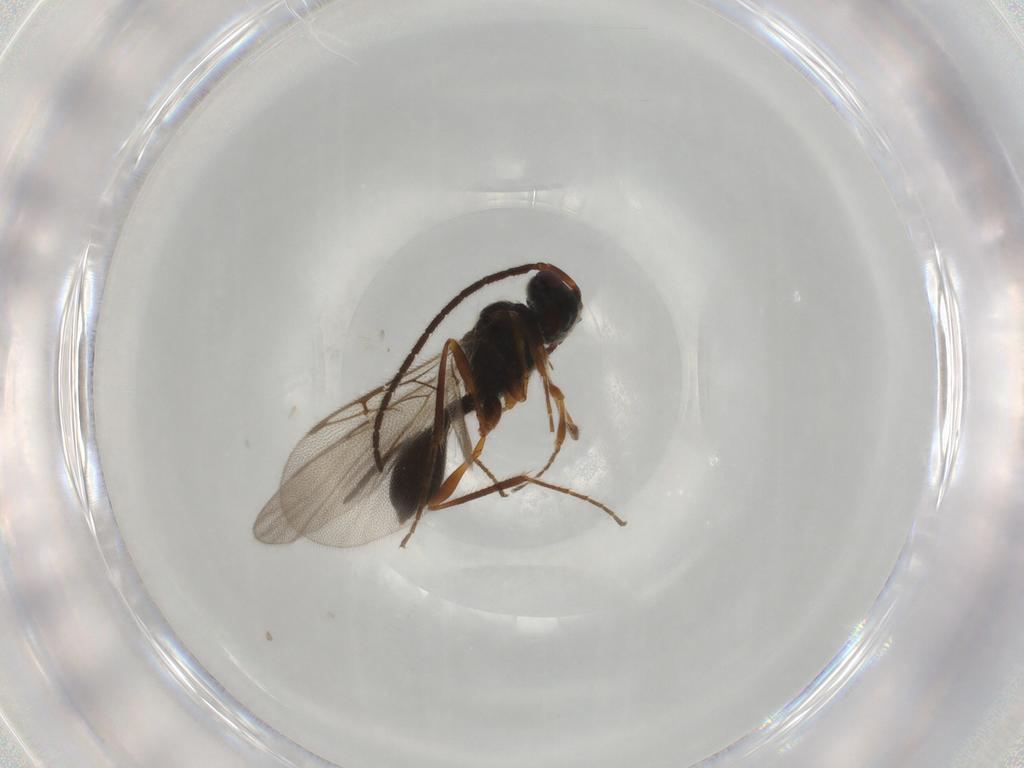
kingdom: Animalia
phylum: Arthropoda
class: Insecta
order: Hymenoptera
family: Diapriidae
